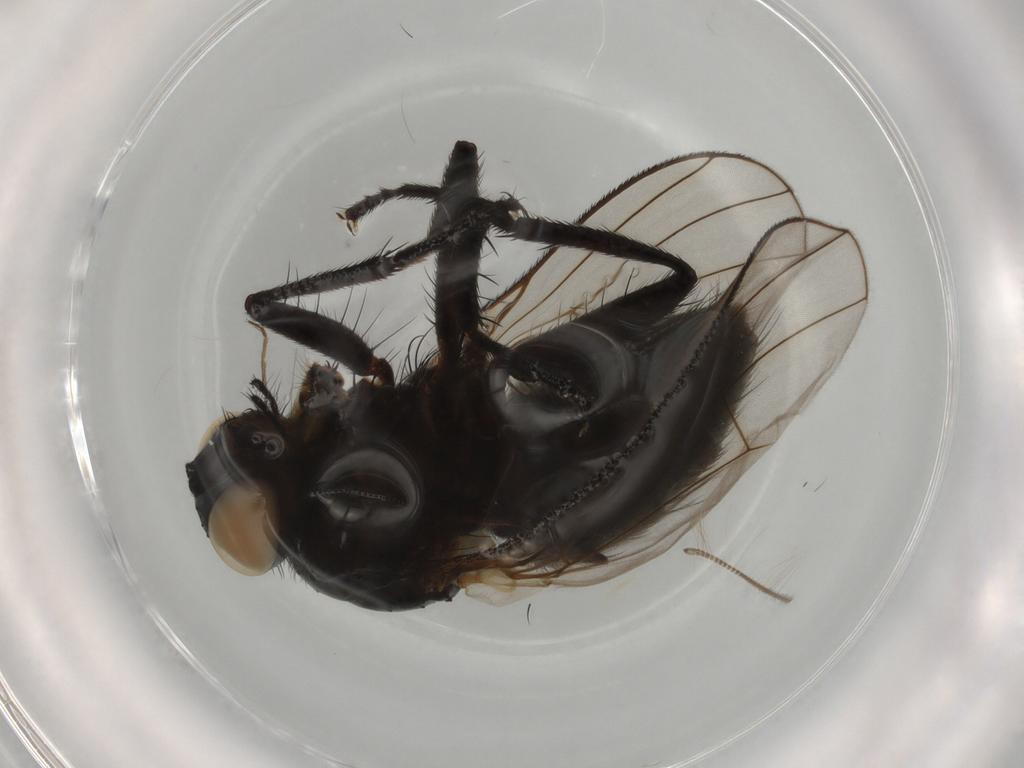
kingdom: Animalia
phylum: Arthropoda
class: Insecta
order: Diptera
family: Muscidae
